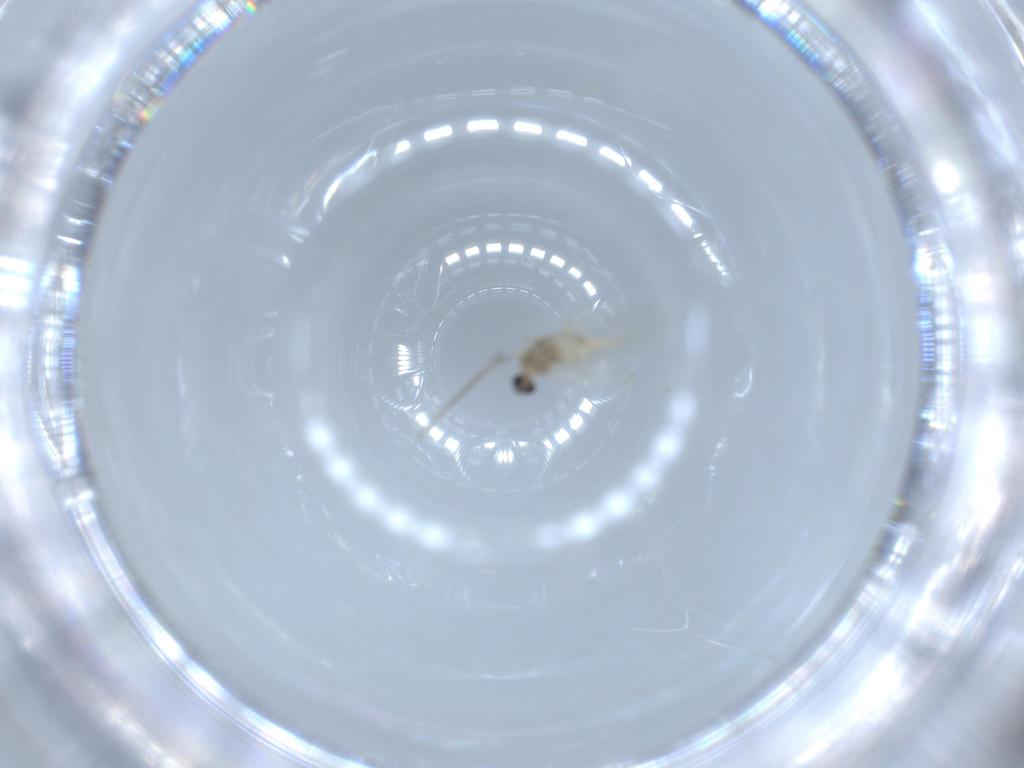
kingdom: Animalia
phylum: Arthropoda
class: Insecta
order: Diptera
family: Cecidomyiidae
